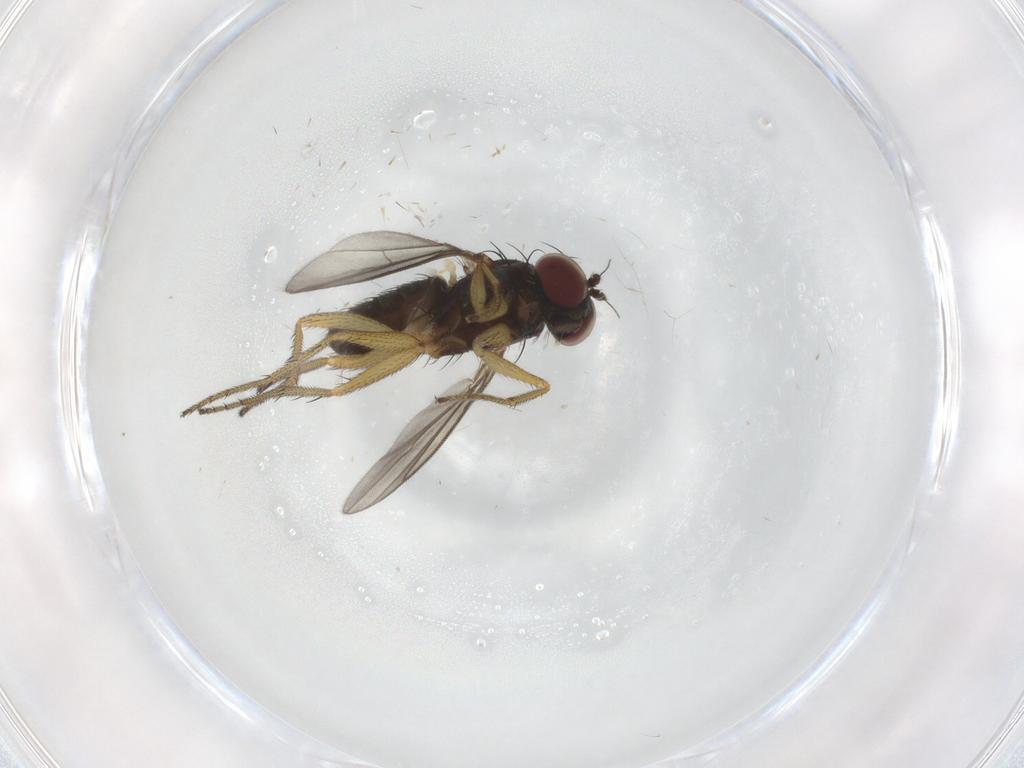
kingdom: Animalia
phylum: Arthropoda
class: Insecta
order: Diptera
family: Dolichopodidae
